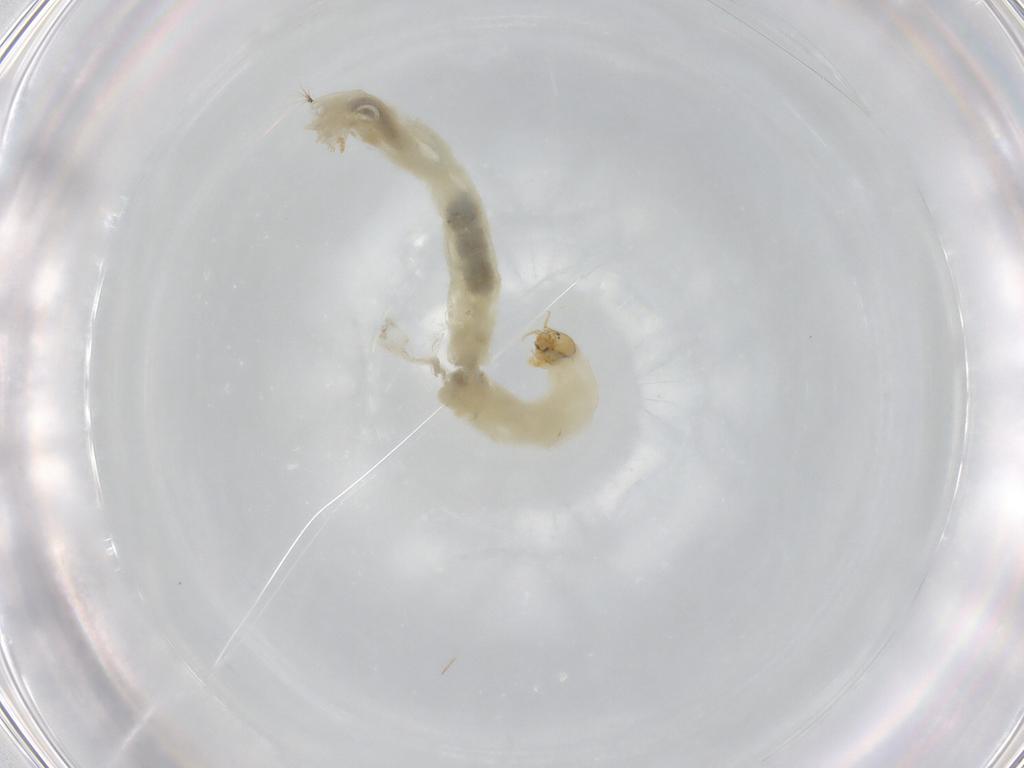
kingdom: Animalia
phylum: Arthropoda
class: Insecta
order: Diptera
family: Chironomidae
